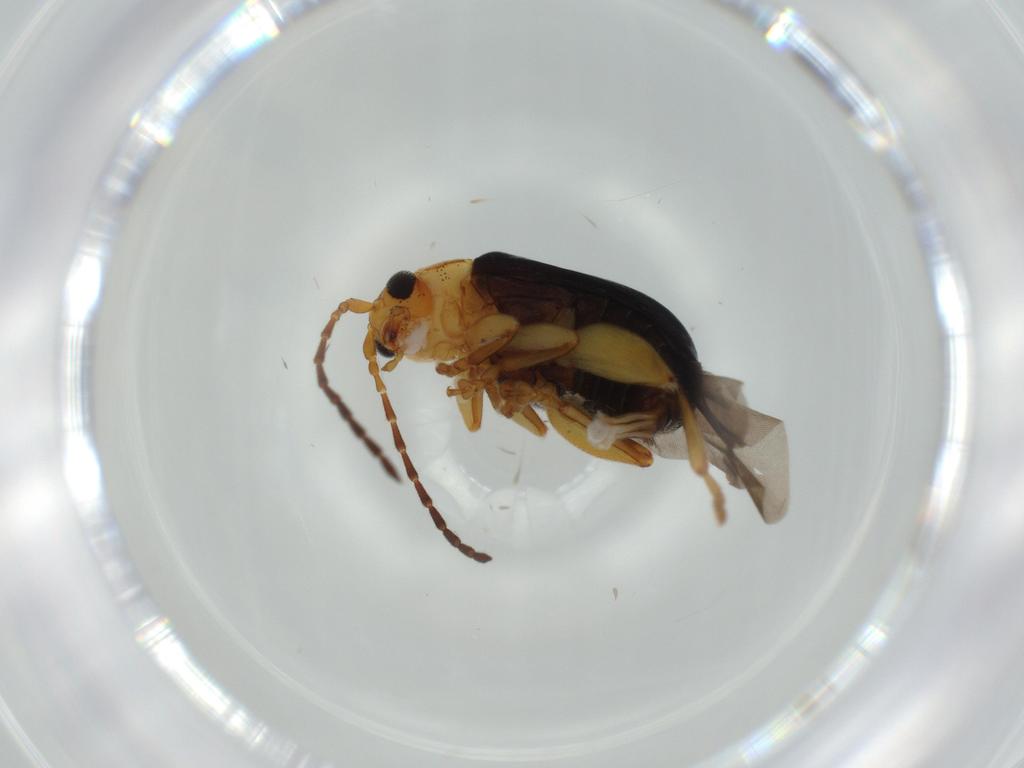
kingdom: Animalia
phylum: Arthropoda
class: Insecta
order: Coleoptera
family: Chrysomelidae
